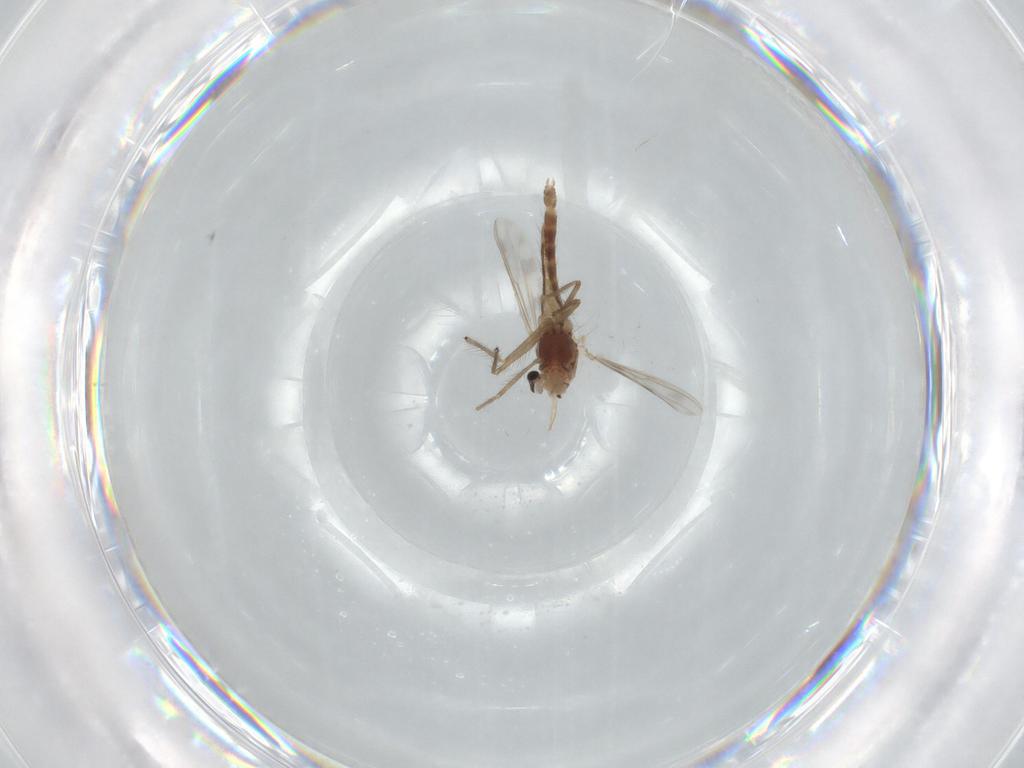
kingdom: Animalia
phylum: Arthropoda
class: Insecta
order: Diptera
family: Chironomidae
